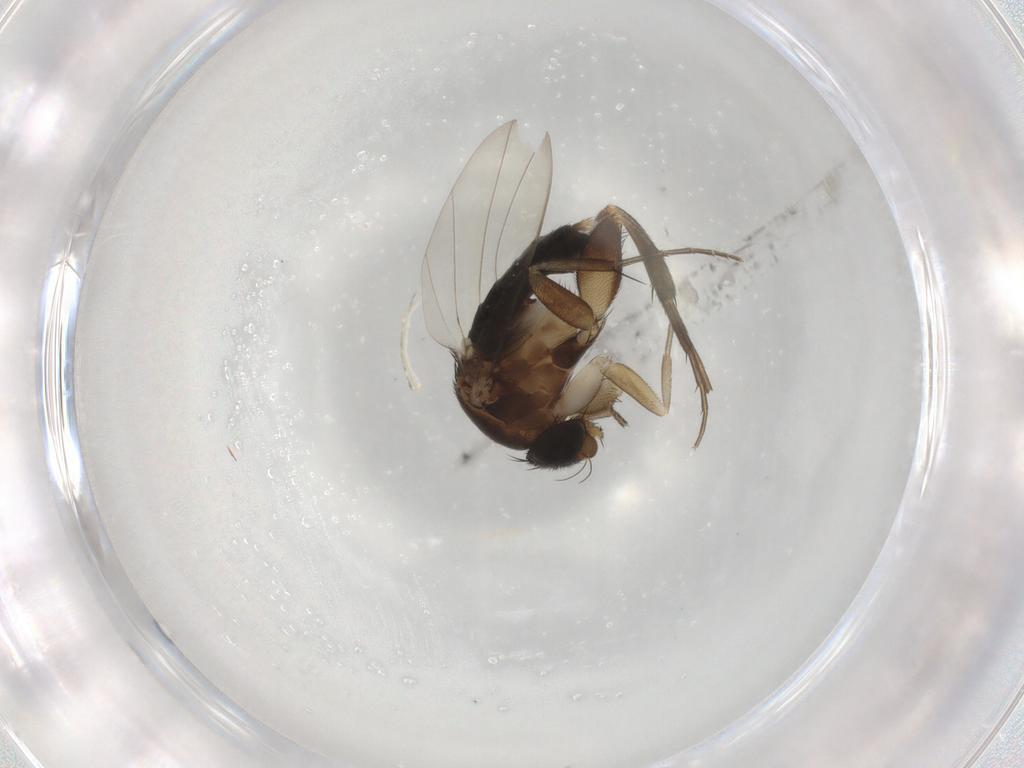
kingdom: Animalia
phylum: Arthropoda
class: Insecta
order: Diptera
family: Phoridae
